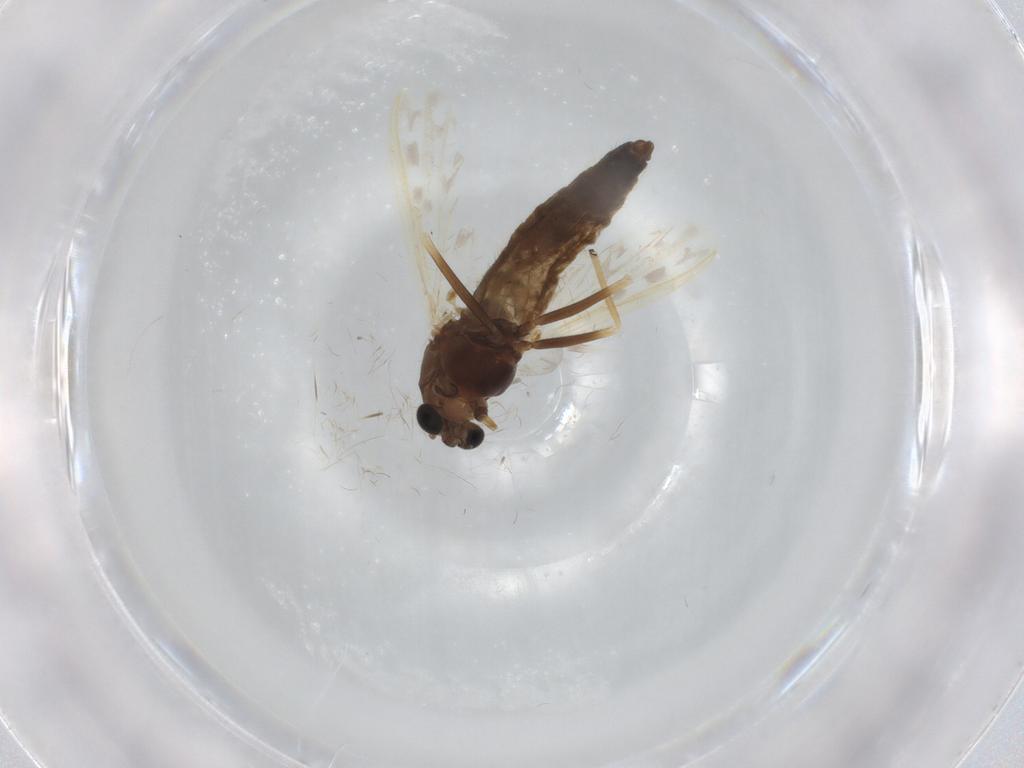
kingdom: Animalia
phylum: Arthropoda
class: Insecta
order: Diptera
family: Chironomidae
